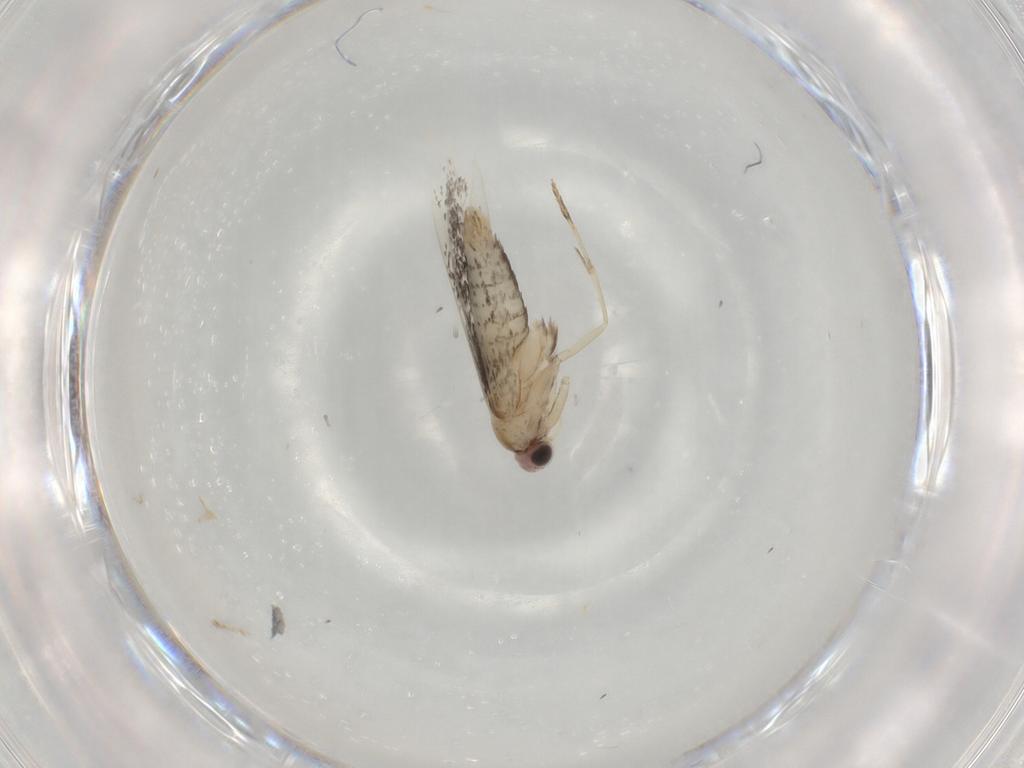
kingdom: Animalia
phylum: Arthropoda
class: Insecta
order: Lepidoptera
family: Tineidae
